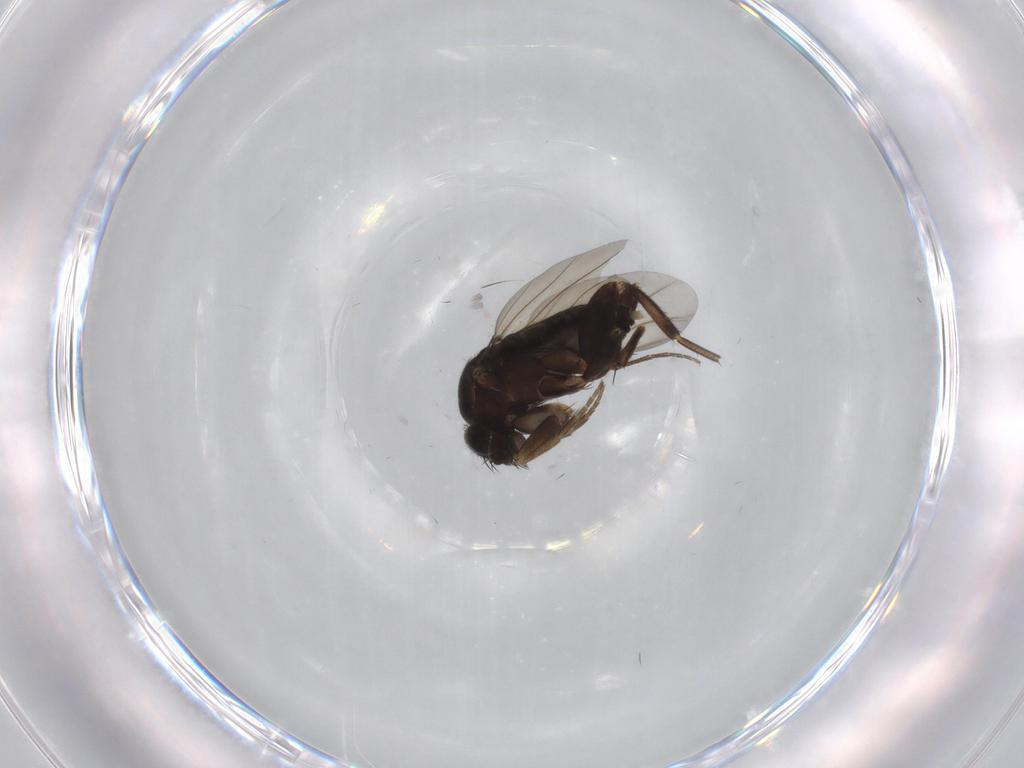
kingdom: Animalia
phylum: Arthropoda
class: Insecta
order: Diptera
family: Phoridae
